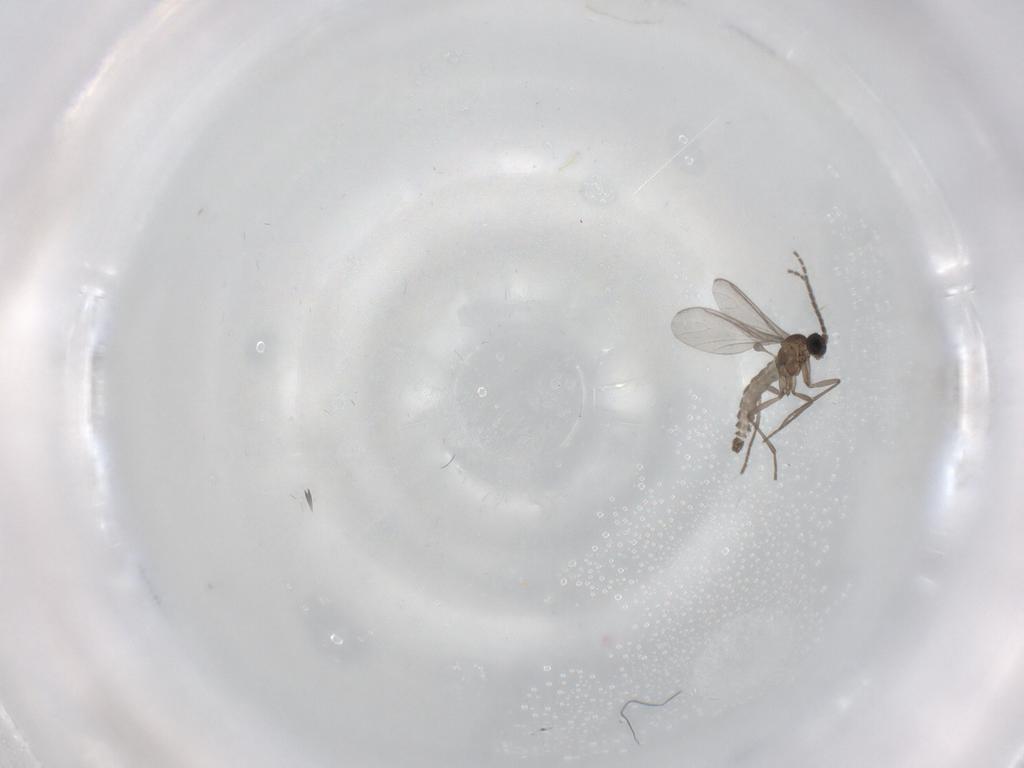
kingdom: Animalia
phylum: Arthropoda
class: Insecta
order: Diptera
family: Sciaridae
